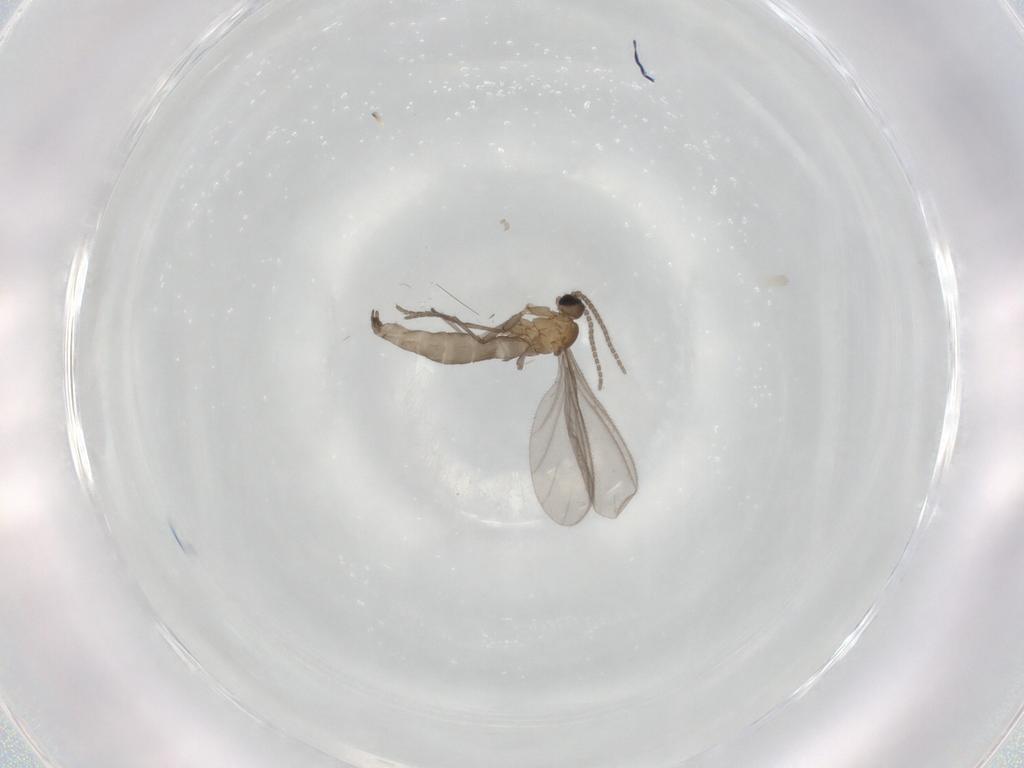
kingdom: Animalia
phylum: Arthropoda
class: Insecta
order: Diptera
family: Sciaridae
